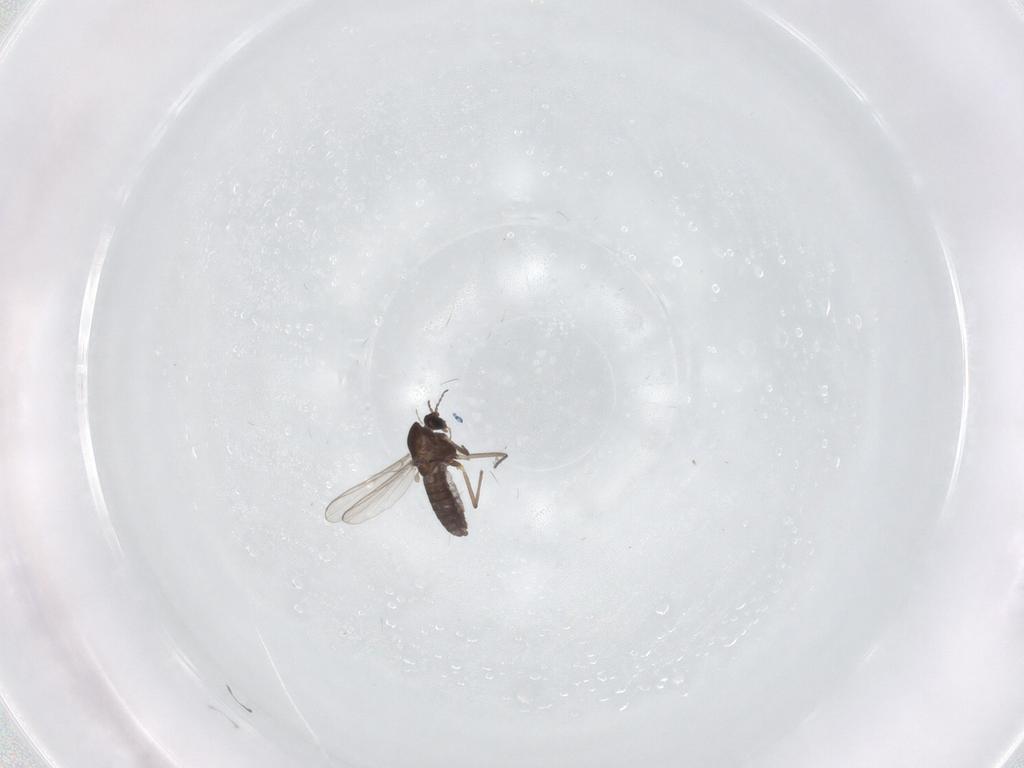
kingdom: Animalia
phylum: Arthropoda
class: Insecta
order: Diptera
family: Chironomidae
